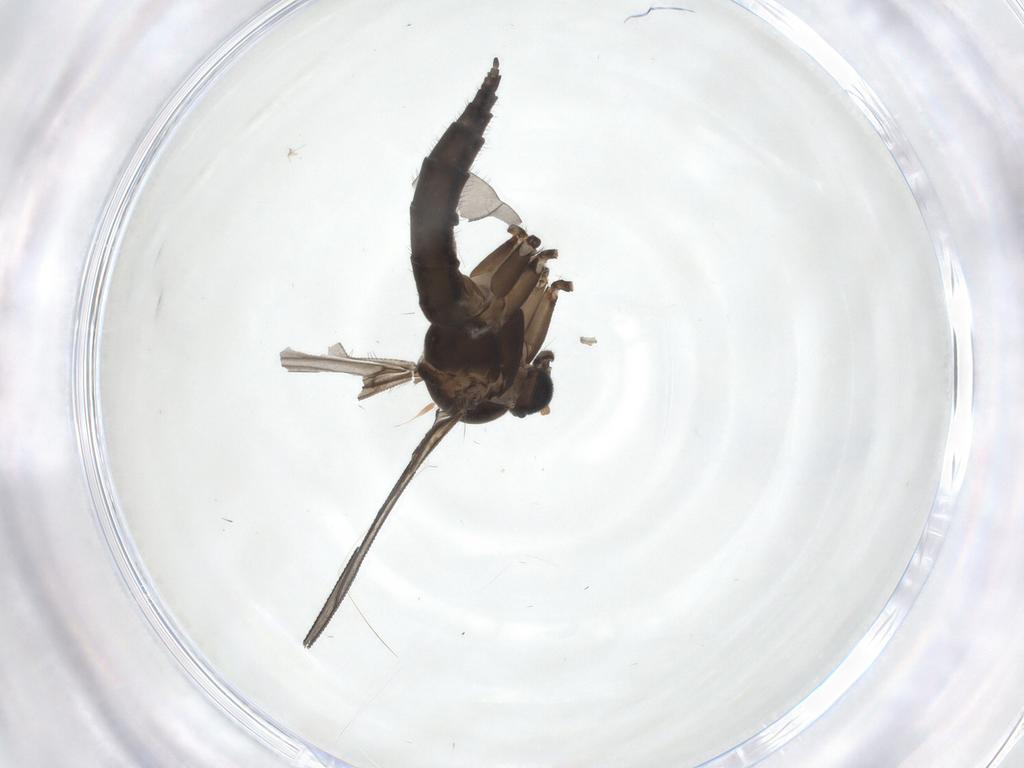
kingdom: Animalia
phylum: Arthropoda
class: Insecta
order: Diptera
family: Sciaridae
